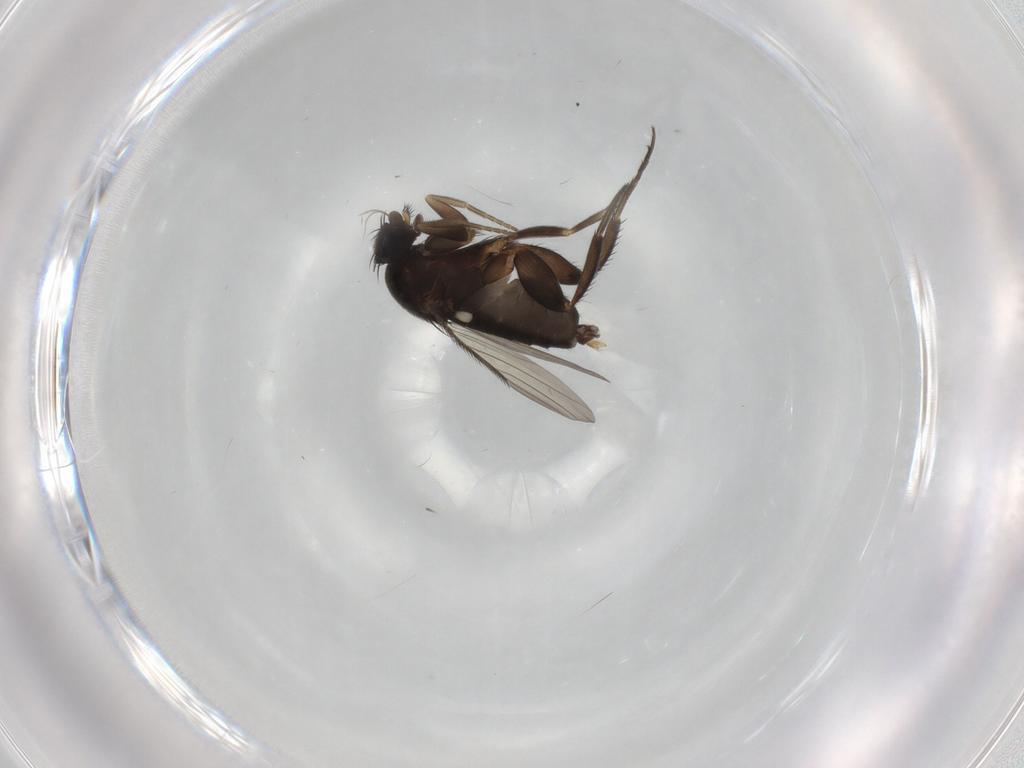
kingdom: Animalia
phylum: Arthropoda
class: Insecta
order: Diptera
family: Phoridae
